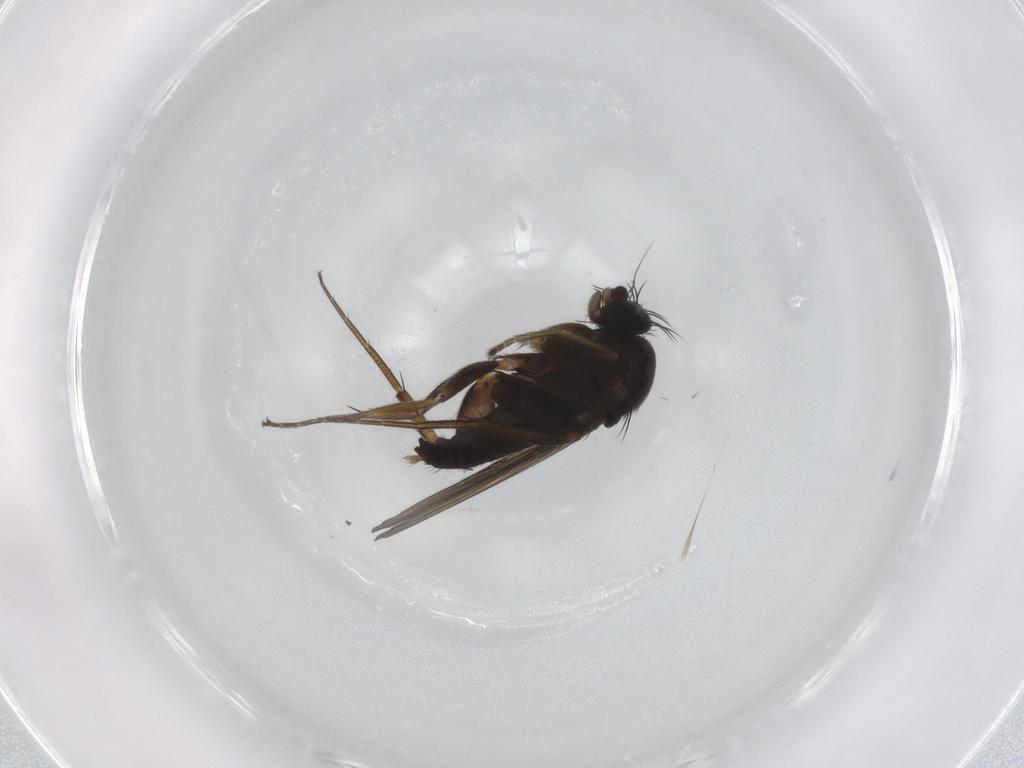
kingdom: Animalia
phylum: Arthropoda
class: Insecta
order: Diptera
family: Phoridae
